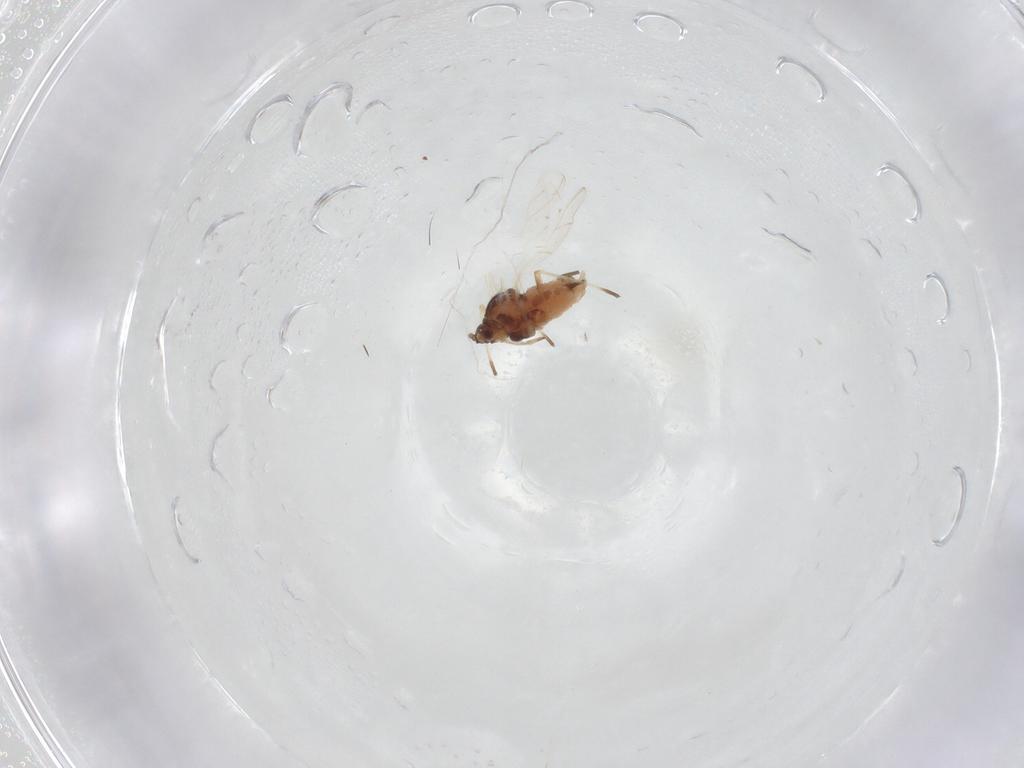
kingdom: Animalia
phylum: Arthropoda
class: Insecta
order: Hemiptera
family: Aphididae
